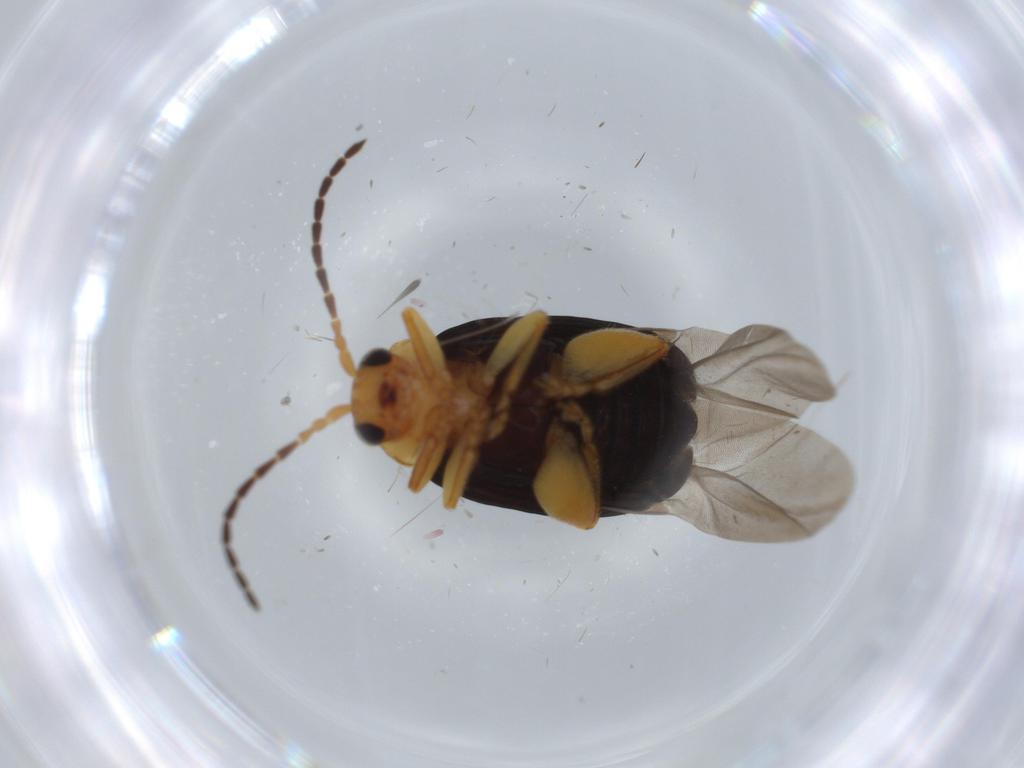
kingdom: Animalia
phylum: Arthropoda
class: Insecta
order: Coleoptera
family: Chrysomelidae
